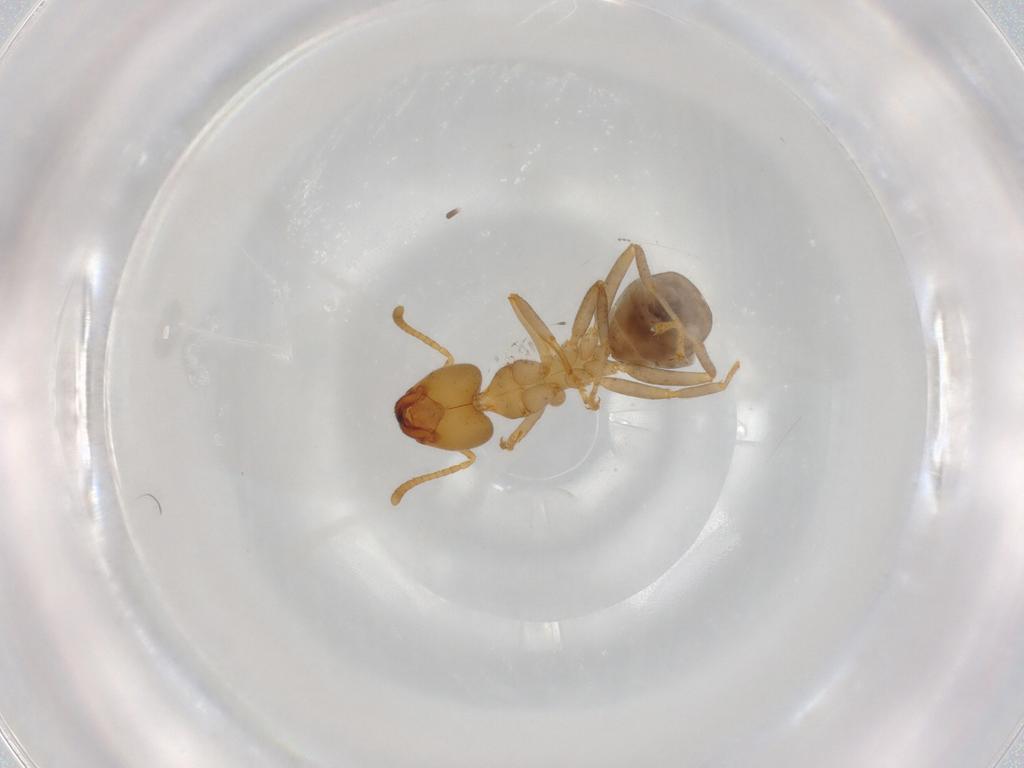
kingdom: Animalia
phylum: Arthropoda
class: Insecta
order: Hymenoptera
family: Formicidae
